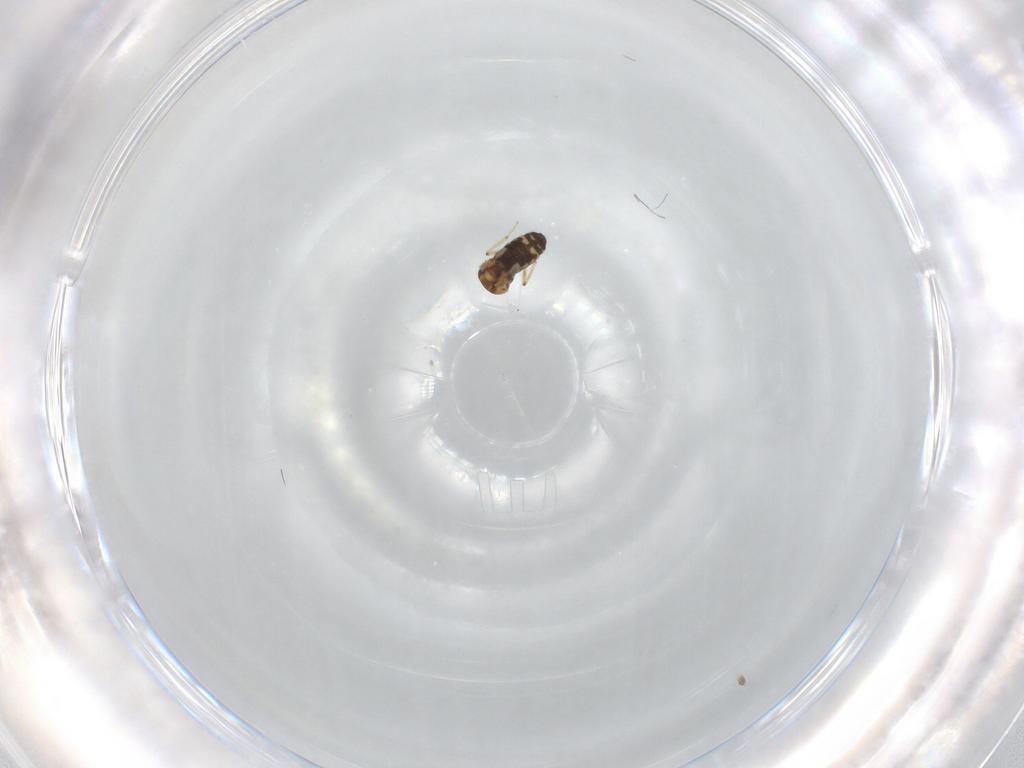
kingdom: Animalia
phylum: Arthropoda
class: Insecta
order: Diptera
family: Ceratopogonidae
